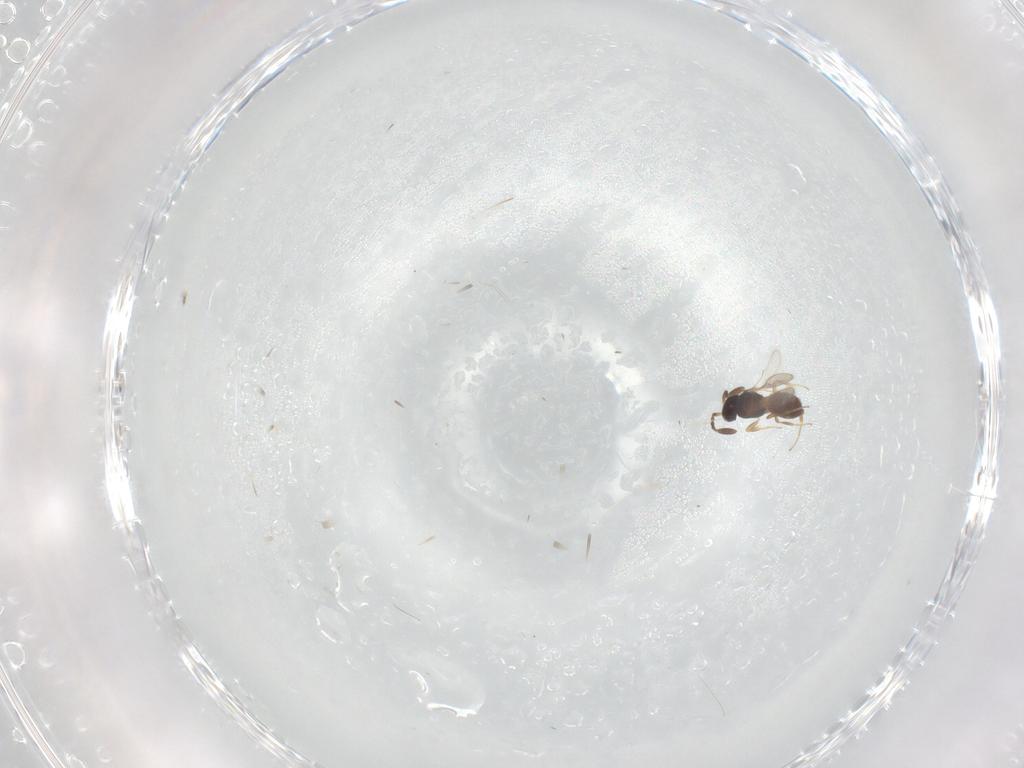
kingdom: Animalia
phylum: Arthropoda
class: Insecta
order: Hymenoptera
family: Scelionidae
